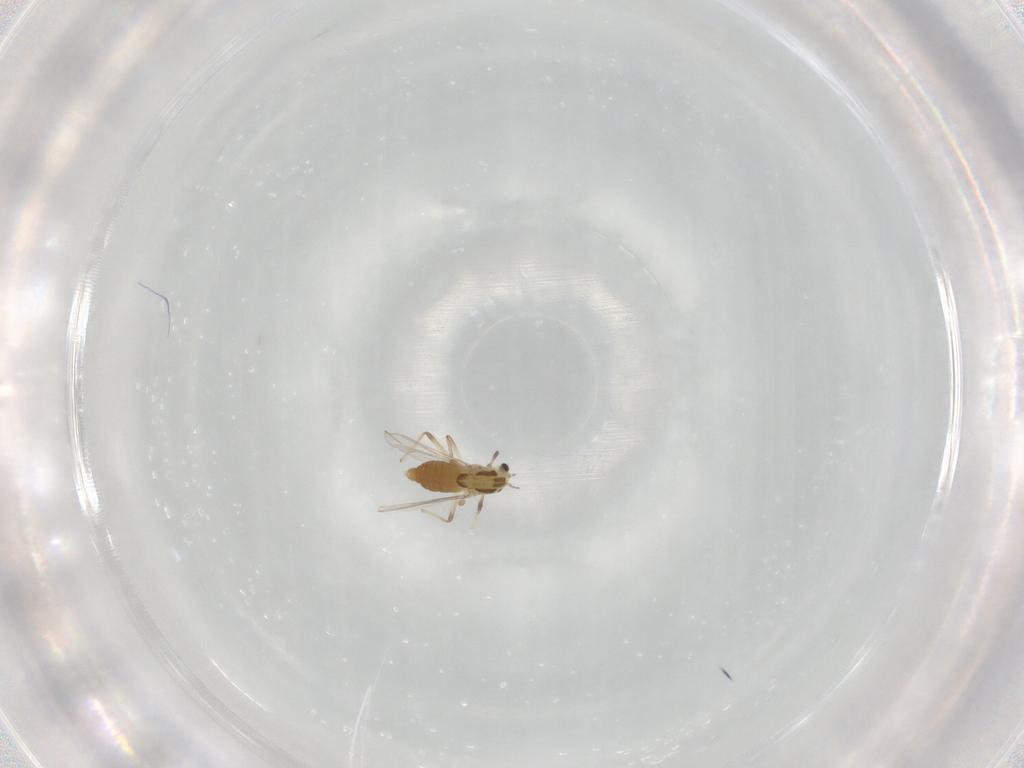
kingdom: Animalia
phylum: Arthropoda
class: Insecta
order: Diptera
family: Chironomidae
